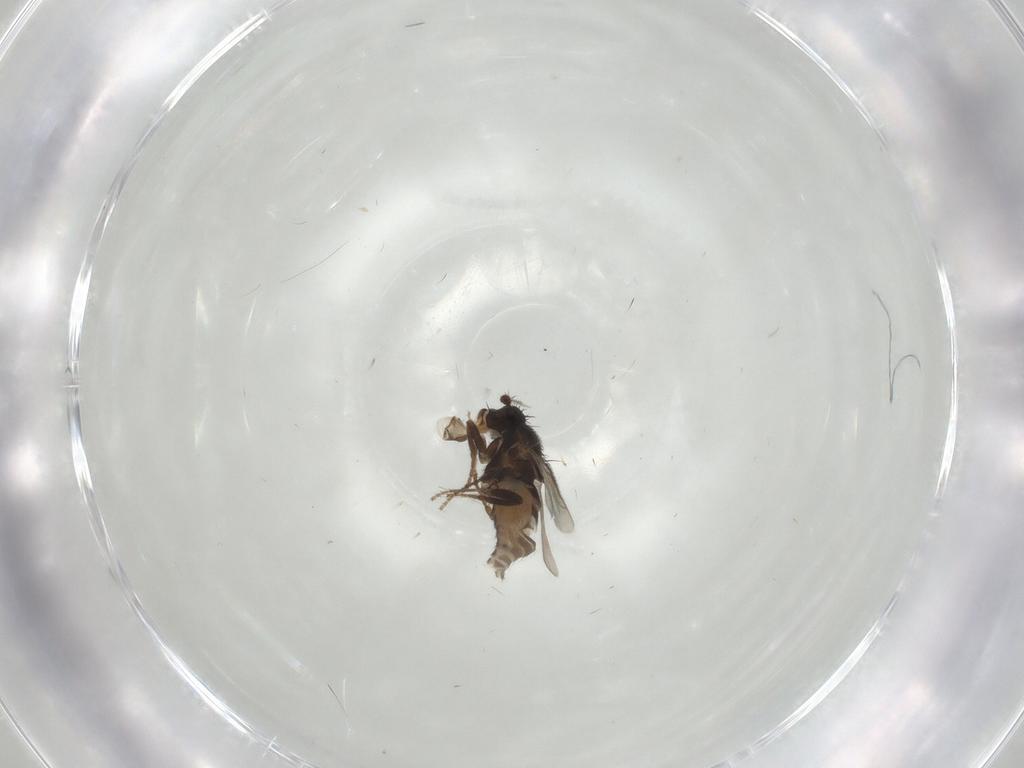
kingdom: Animalia
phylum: Arthropoda
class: Insecta
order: Diptera
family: Sphaeroceridae
